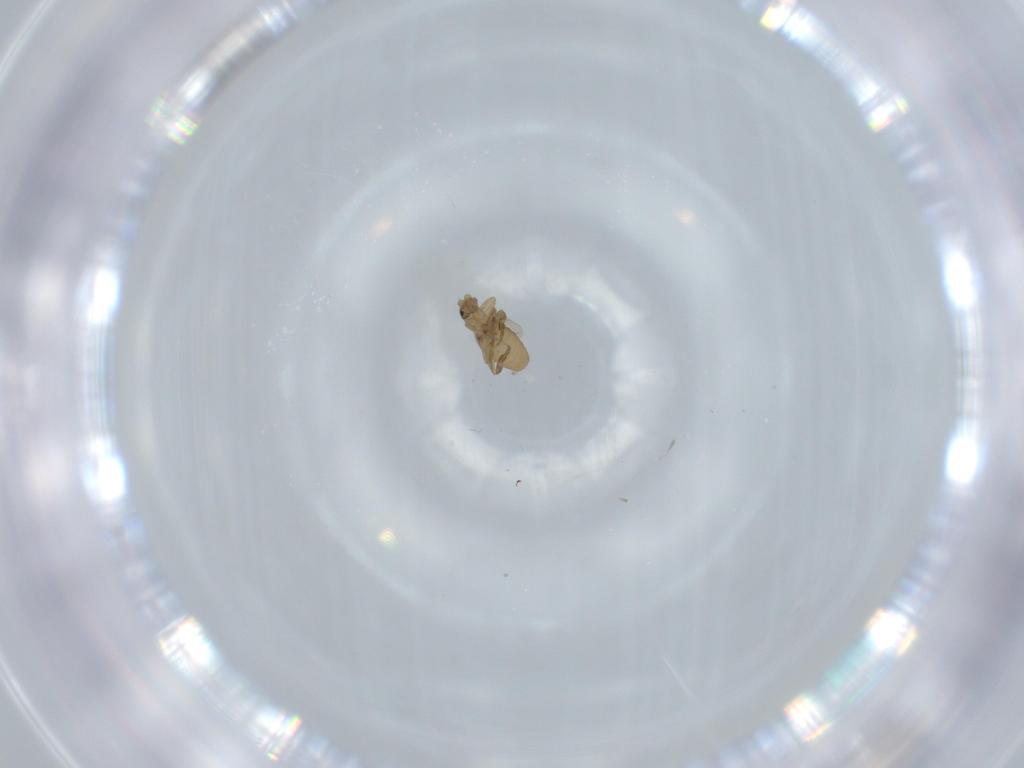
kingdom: Animalia
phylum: Arthropoda
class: Insecta
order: Diptera
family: Phoridae
